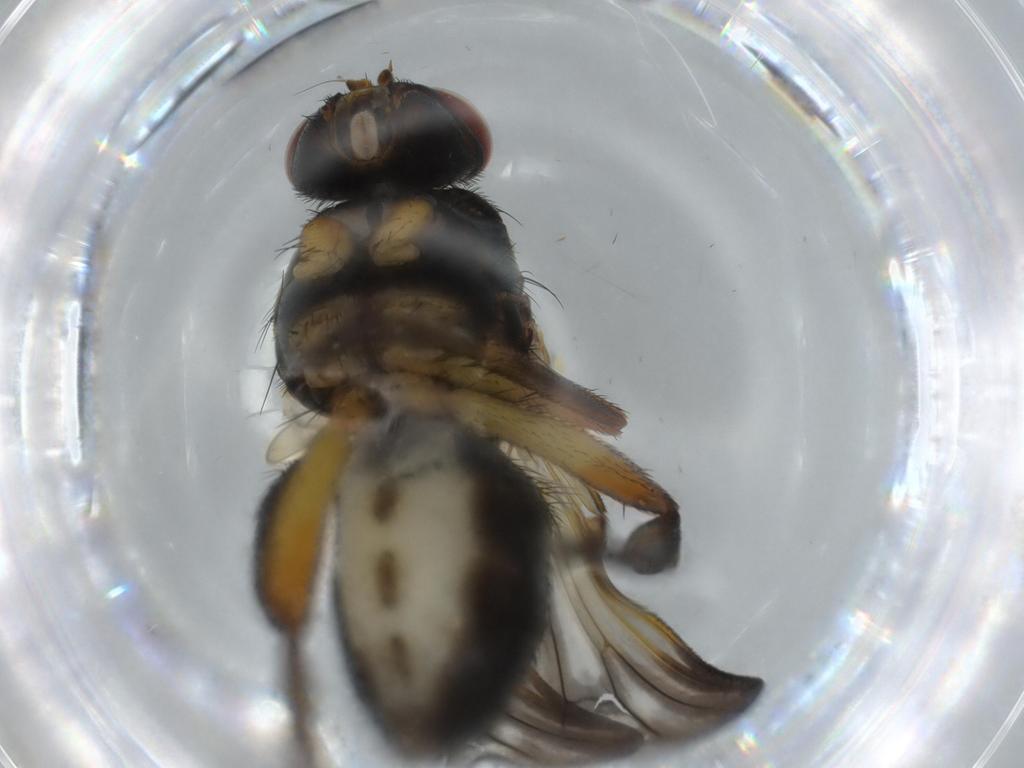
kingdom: Animalia
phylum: Arthropoda
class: Insecta
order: Diptera
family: Calliphoridae
